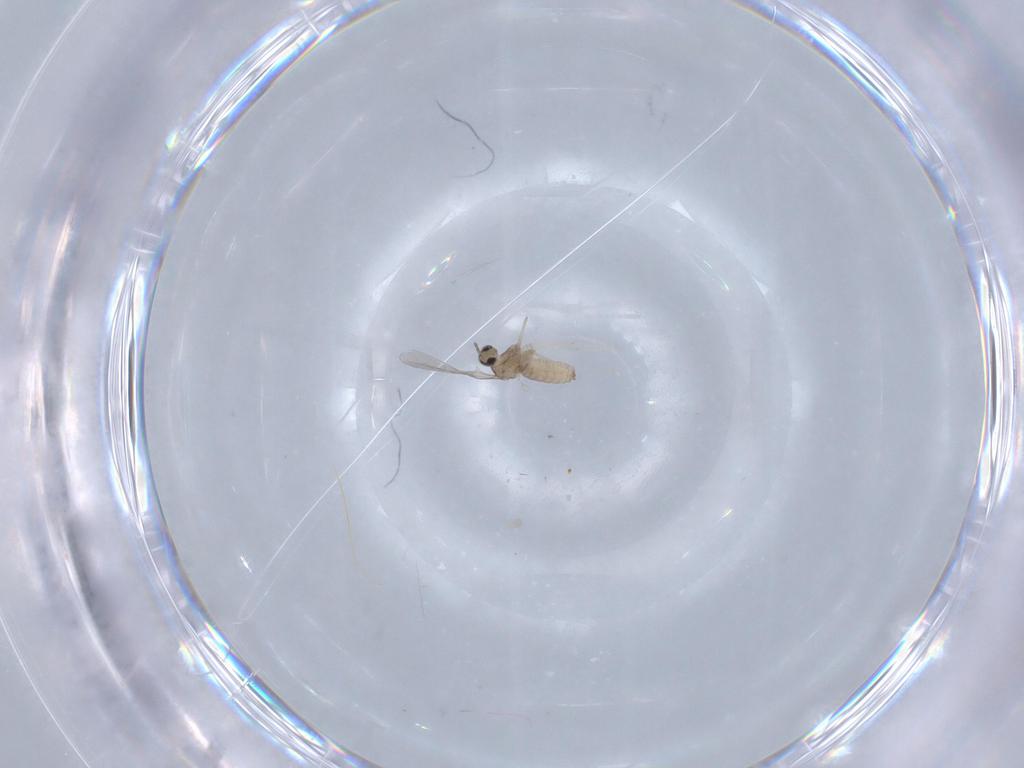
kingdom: Animalia
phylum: Arthropoda
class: Insecta
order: Diptera
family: Cecidomyiidae
